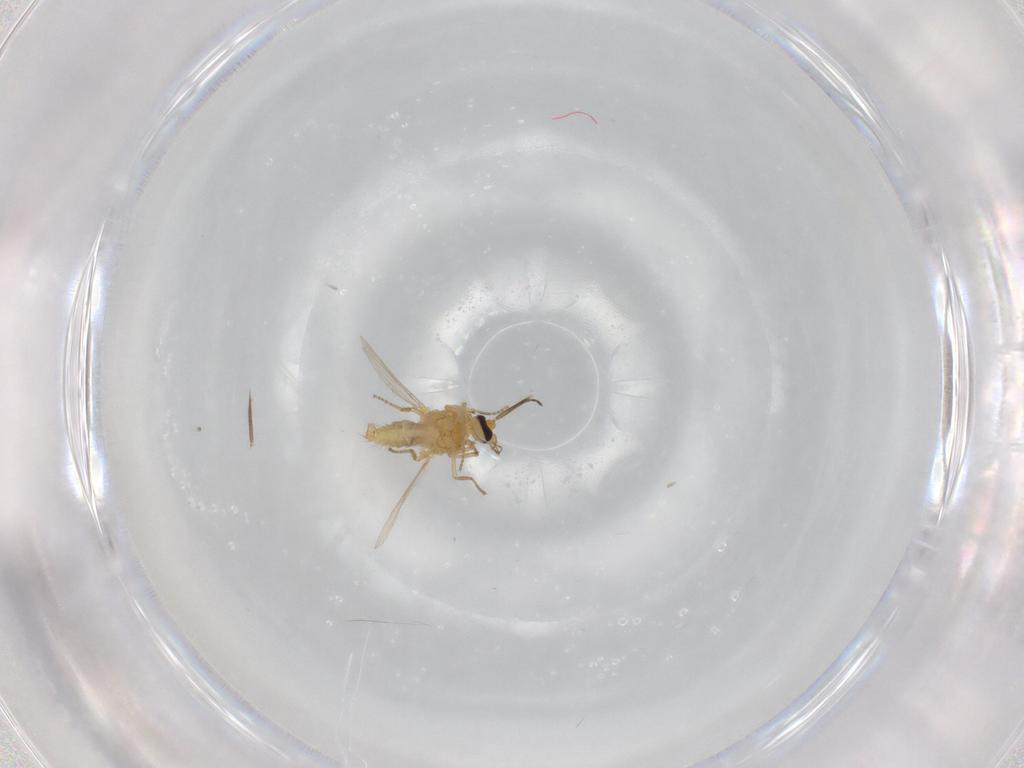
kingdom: Animalia
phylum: Arthropoda
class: Insecta
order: Diptera
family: Ceratopogonidae
